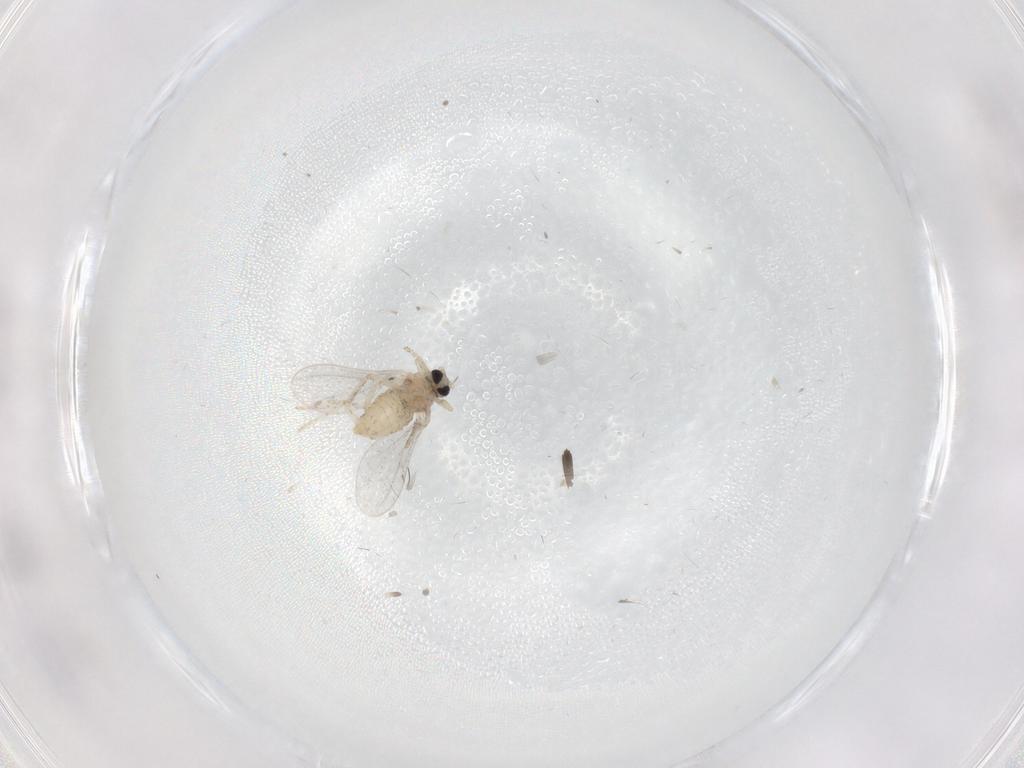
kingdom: Animalia
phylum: Arthropoda
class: Insecta
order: Diptera
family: Cecidomyiidae
